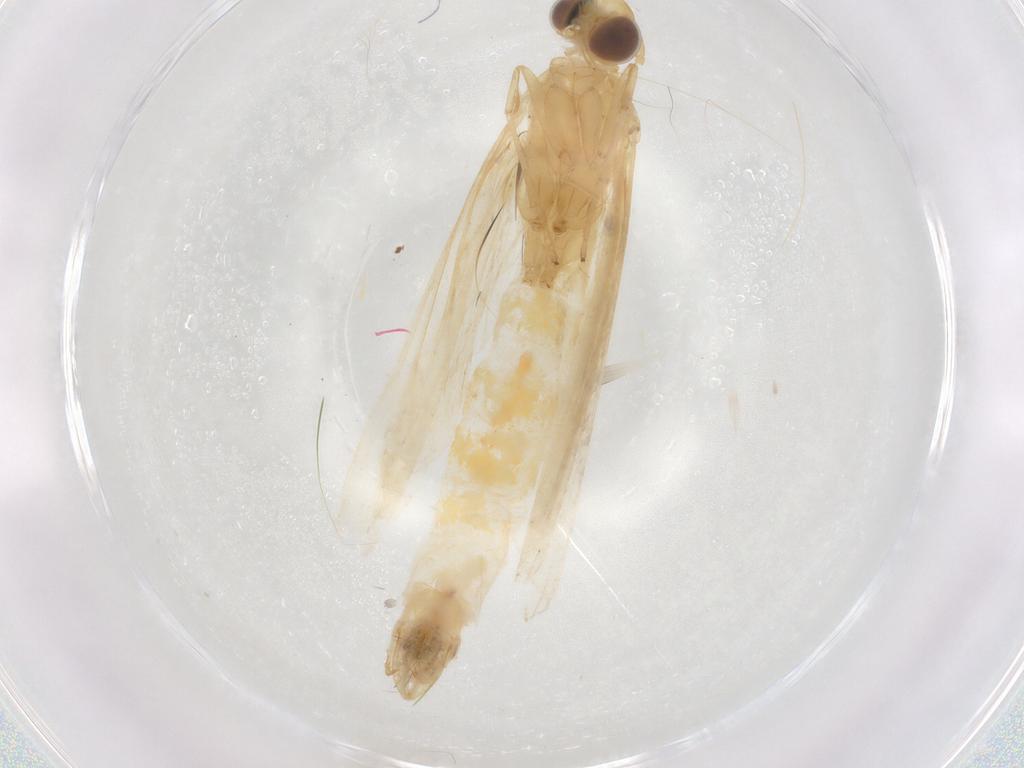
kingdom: Animalia
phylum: Arthropoda
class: Insecta
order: Lepidoptera
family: Pyralidae
